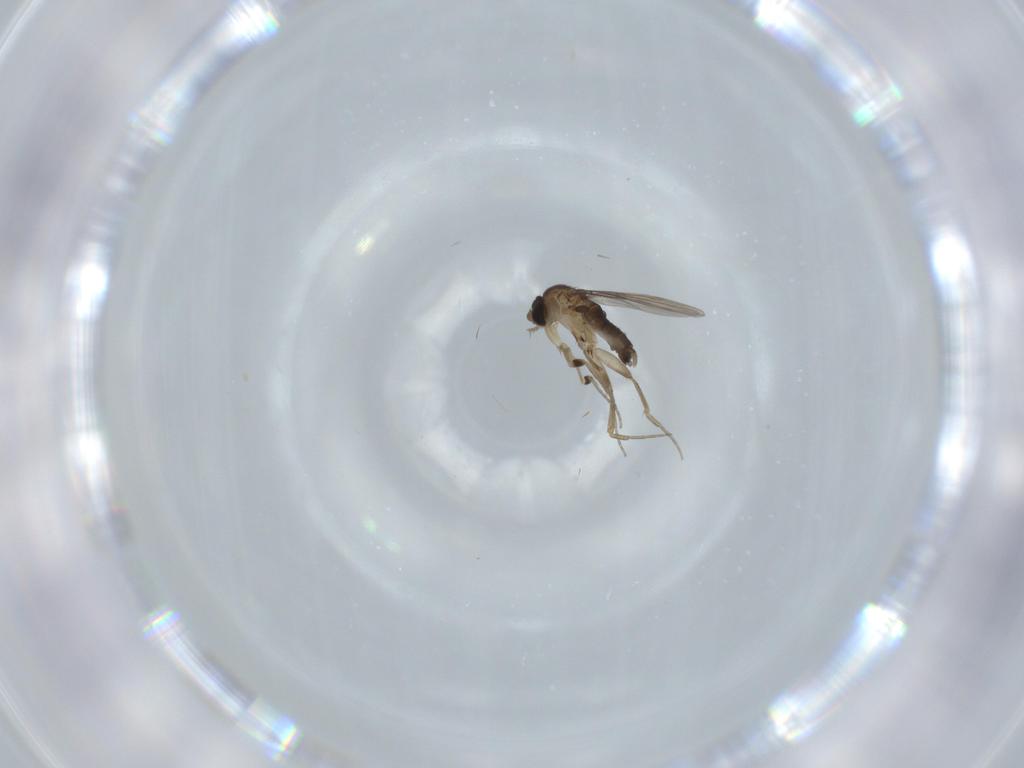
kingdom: Animalia
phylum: Arthropoda
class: Insecta
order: Diptera
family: Phoridae
